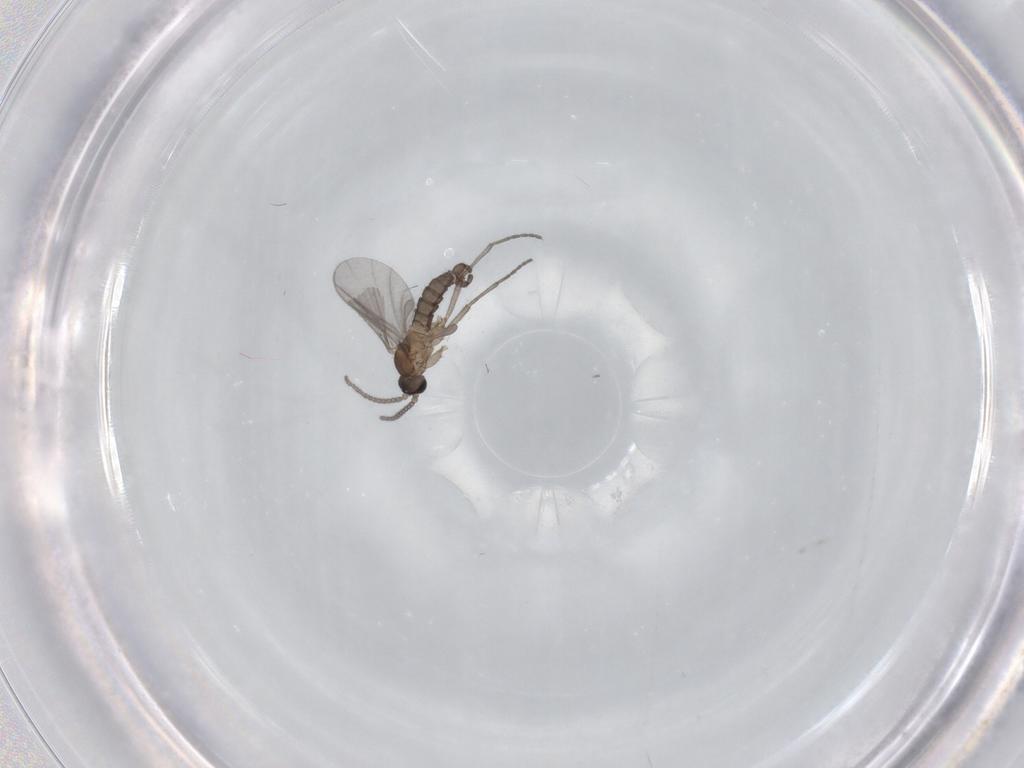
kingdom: Animalia
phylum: Arthropoda
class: Insecta
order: Diptera
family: Sciaridae
